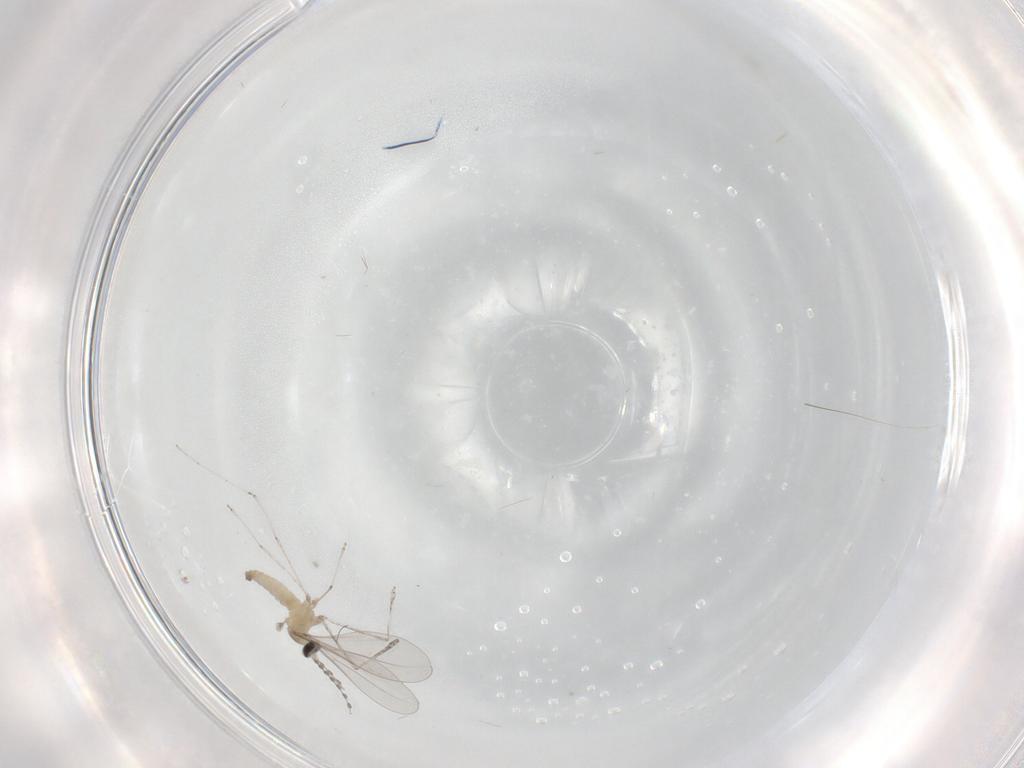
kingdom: Animalia
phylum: Arthropoda
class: Insecta
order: Diptera
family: Cecidomyiidae
